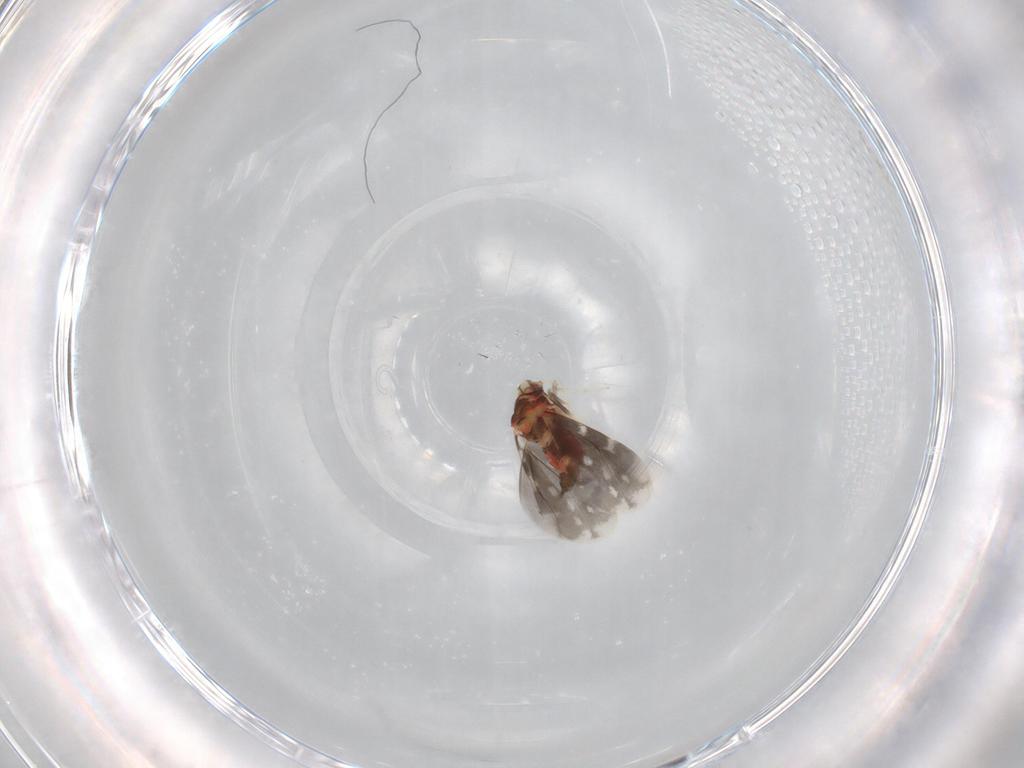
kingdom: Animalia
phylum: Arthropoda
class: Insecta
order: Hemiptera
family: Aleyrodidae
